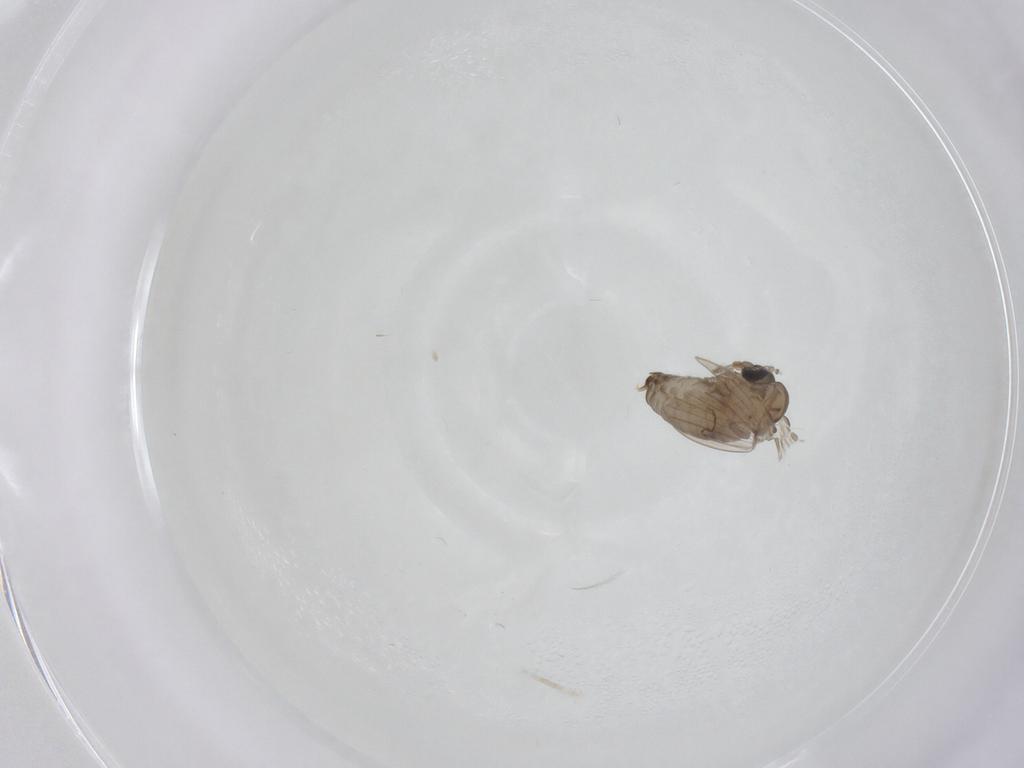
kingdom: Animalia
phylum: Arthropoda
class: Insecta
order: Diptera
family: Psychodidae
